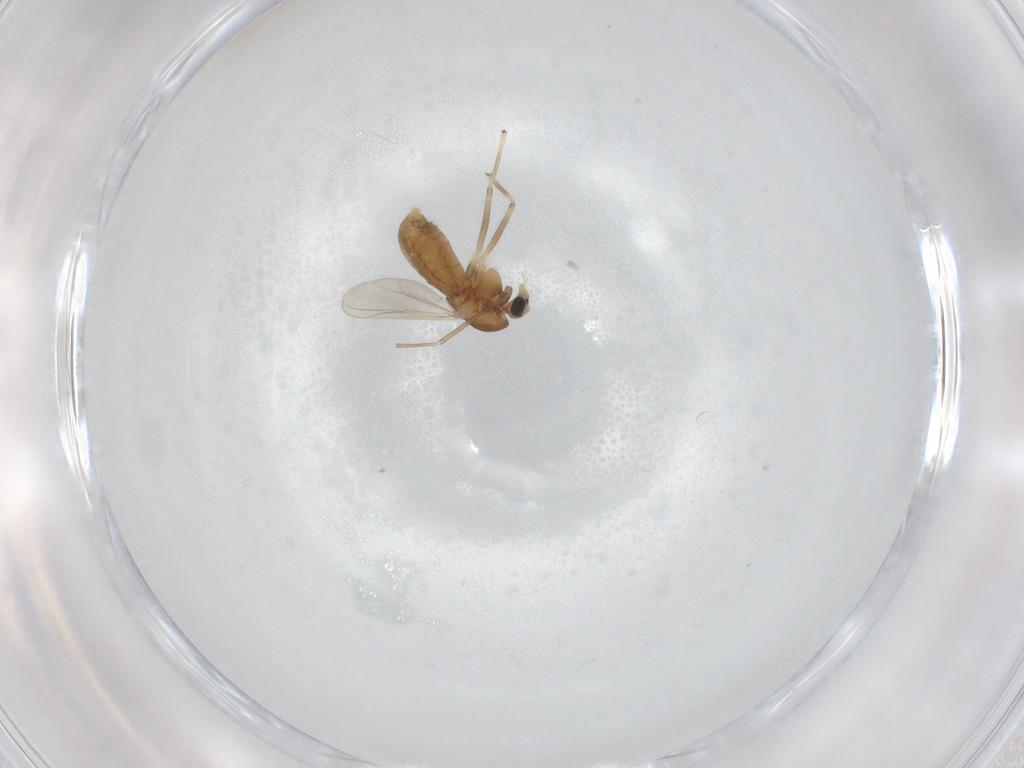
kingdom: Animalia
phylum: Arthropoda
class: Insecta
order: Diptera
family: Chironomidae
